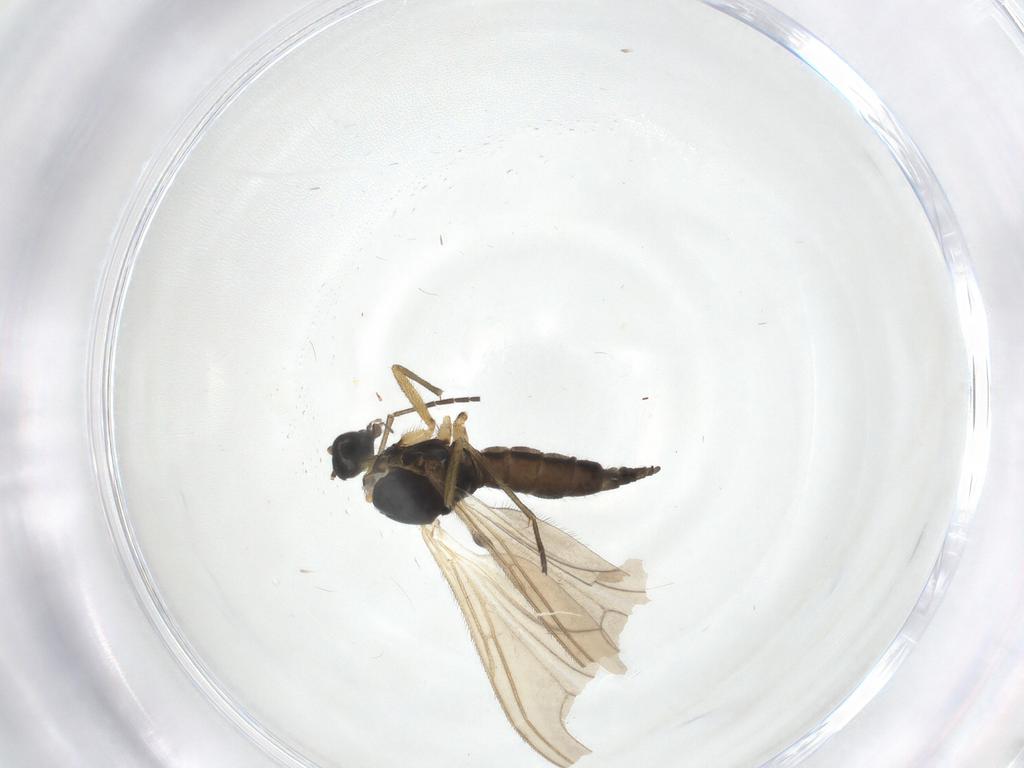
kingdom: Animalia
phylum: Arthropoda
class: Insecta
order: Diptera
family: Sciaridae
